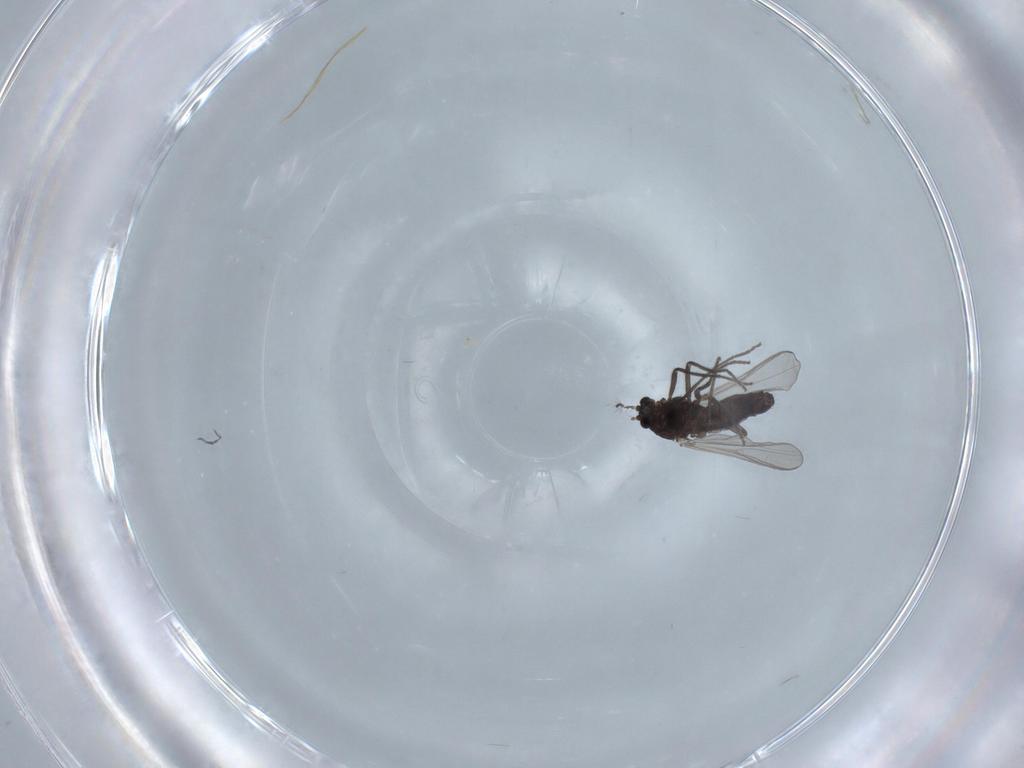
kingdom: Animalia
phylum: Arthropoda
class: Insecta
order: Diptera
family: Chironomidae
